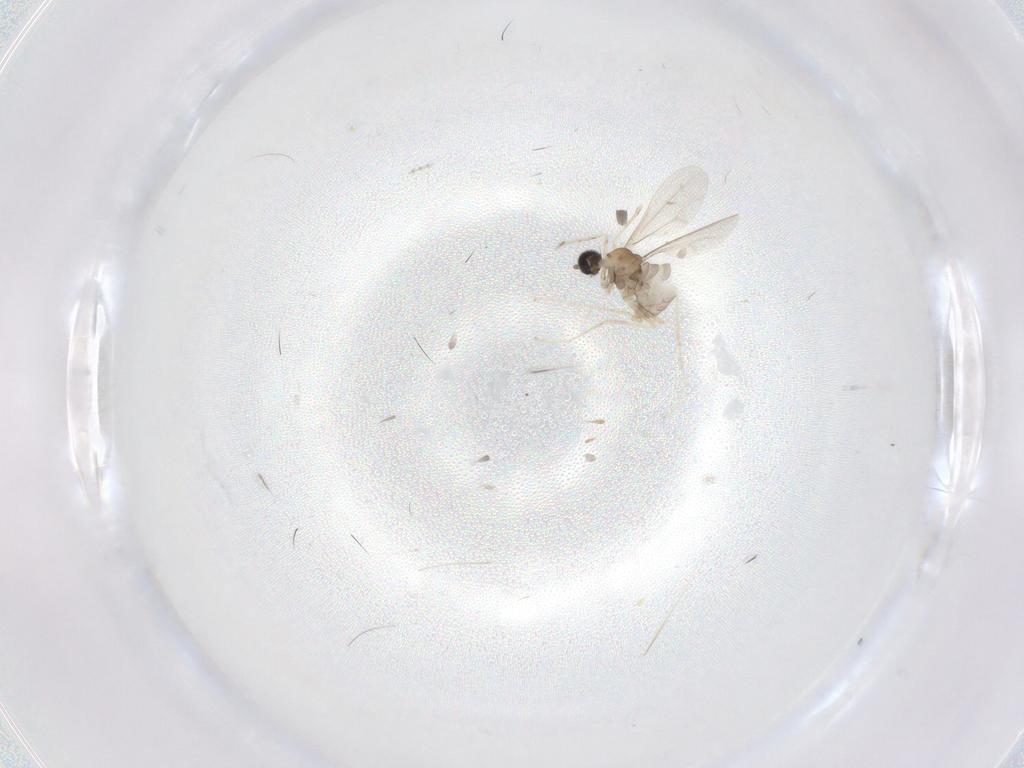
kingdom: Animalia
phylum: Arthropoda
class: Insecta
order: Diptera
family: Cecidomyiidae
